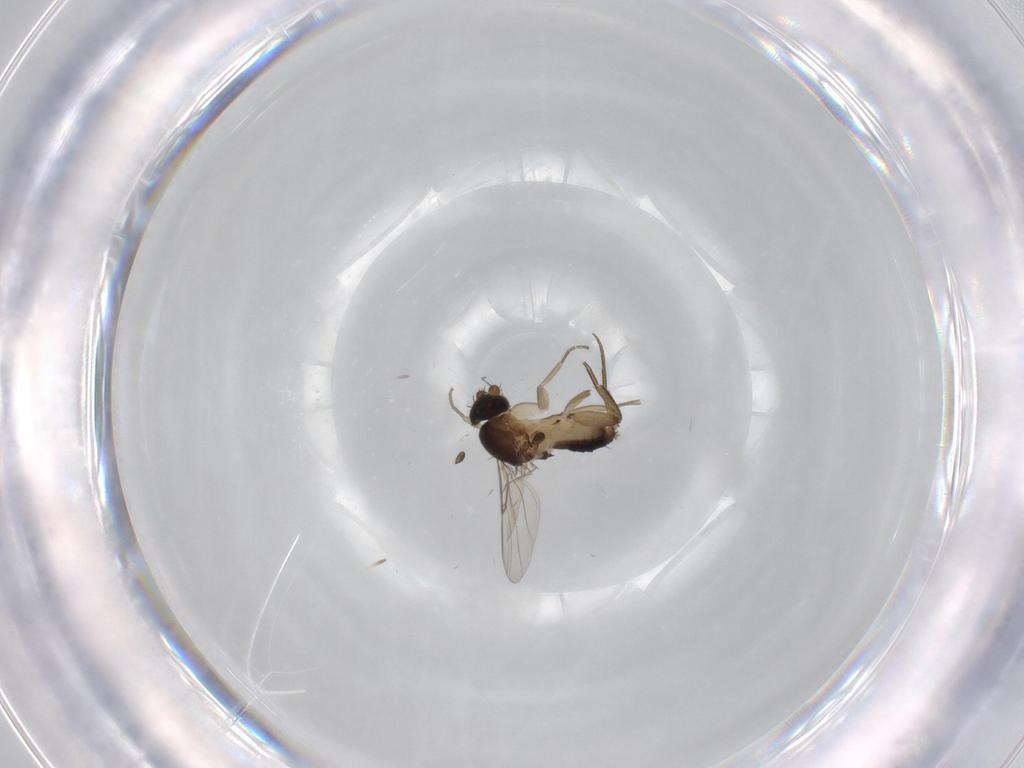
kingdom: Animalia
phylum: Arthropoda
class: Insecta
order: Diptera
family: Phoridae
